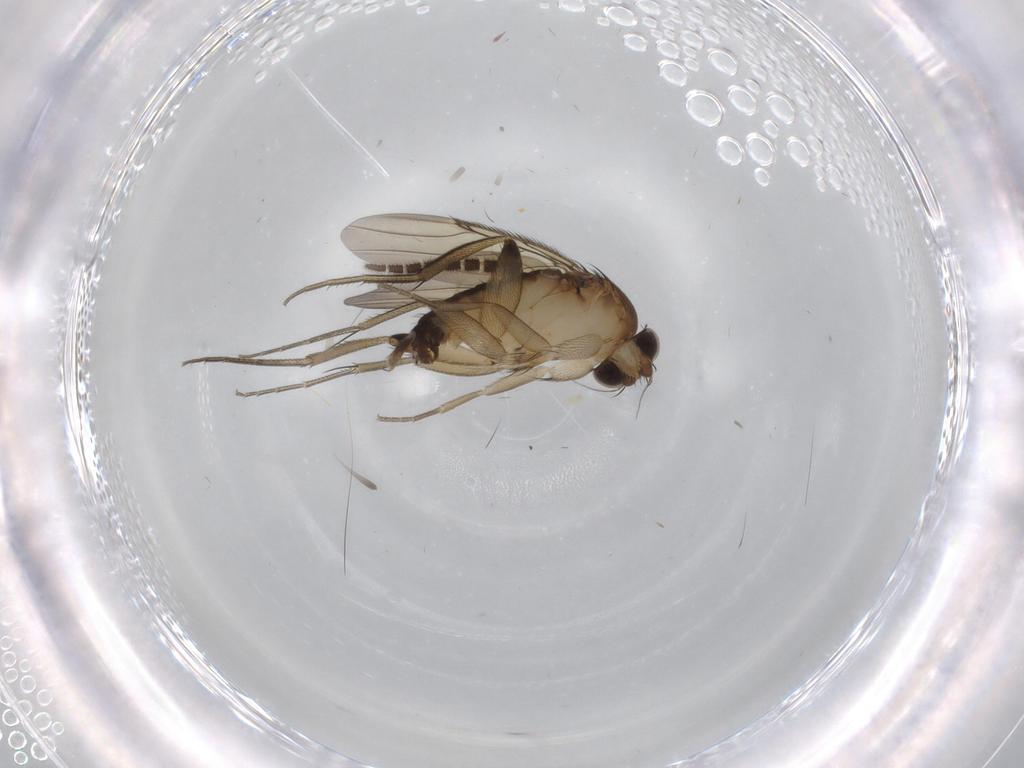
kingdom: Animalia
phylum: Arthropoda
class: Insecta
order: Diptera
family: Phoridae
